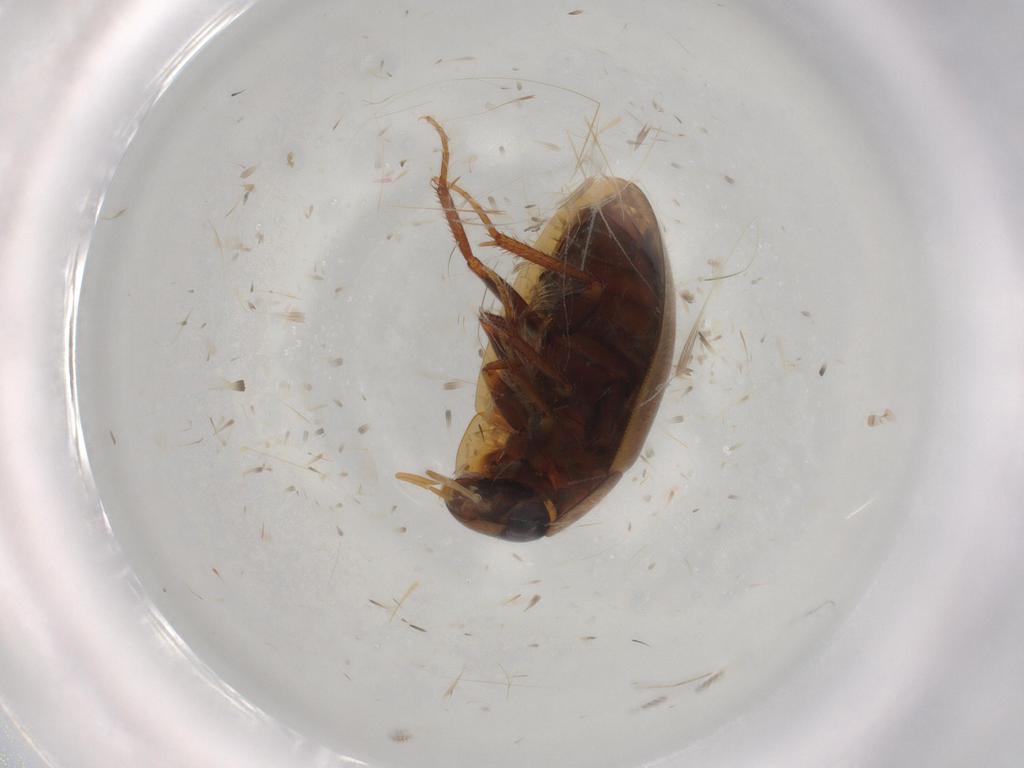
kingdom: Animalia
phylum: Arthropoda
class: Insecta
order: Coleoptera
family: Hydrophilidae
